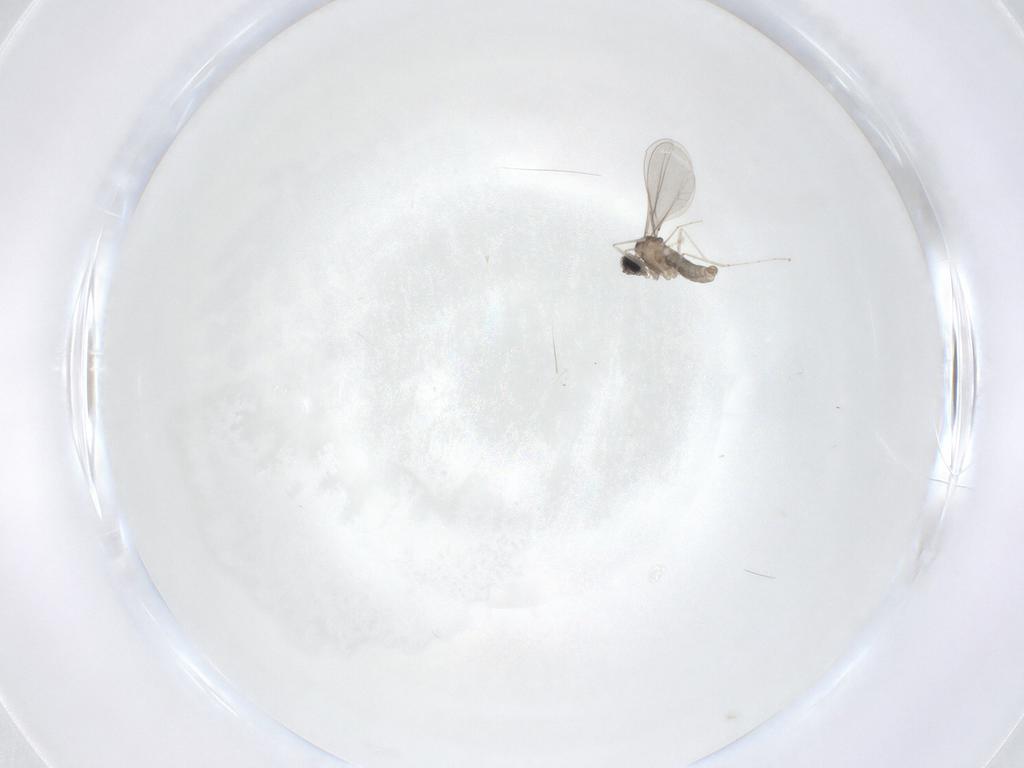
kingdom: Animalia
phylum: Arthropoda
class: Insecta
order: Diptera
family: Cecidomyiidae
